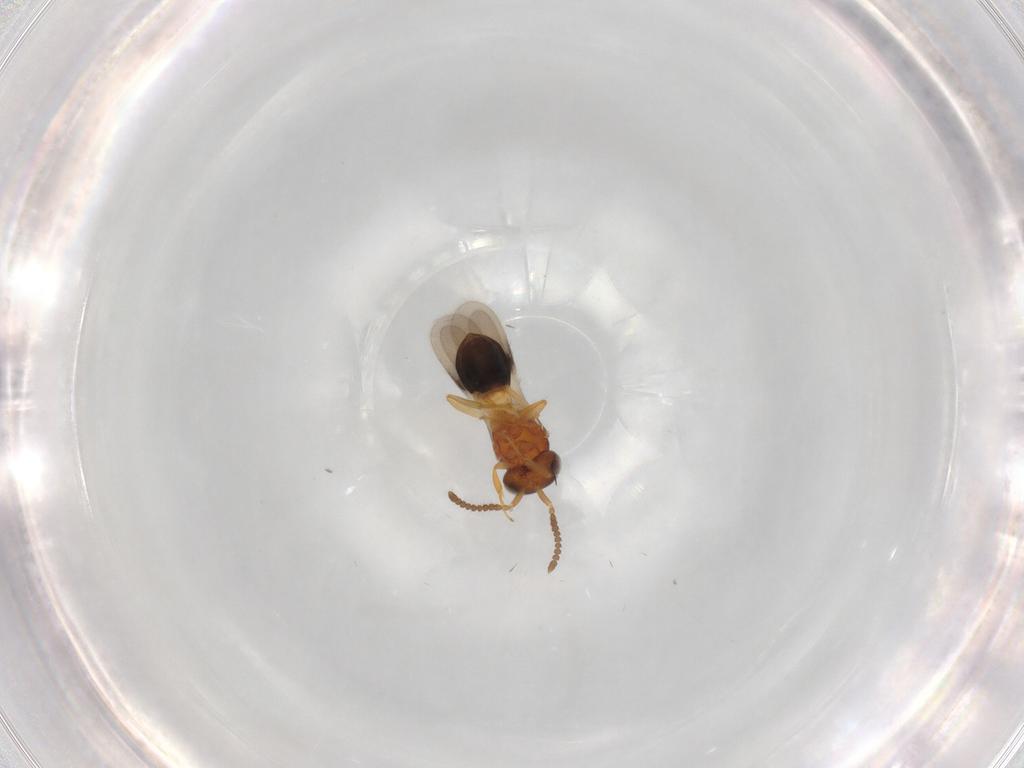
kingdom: Animalia
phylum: Arthropoda
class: Insecta
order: Hymenoptera
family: Scelionidae
